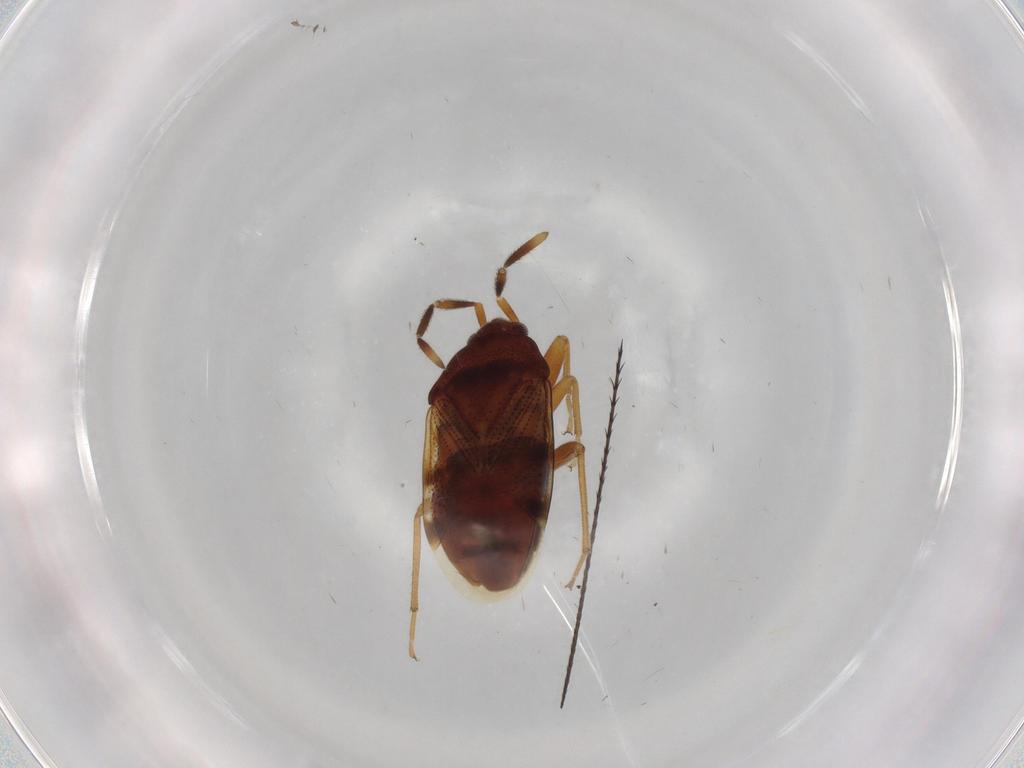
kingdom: Animalia
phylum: Arthropoda
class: Insecta
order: Hemiptera
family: Rhyparochromidae
